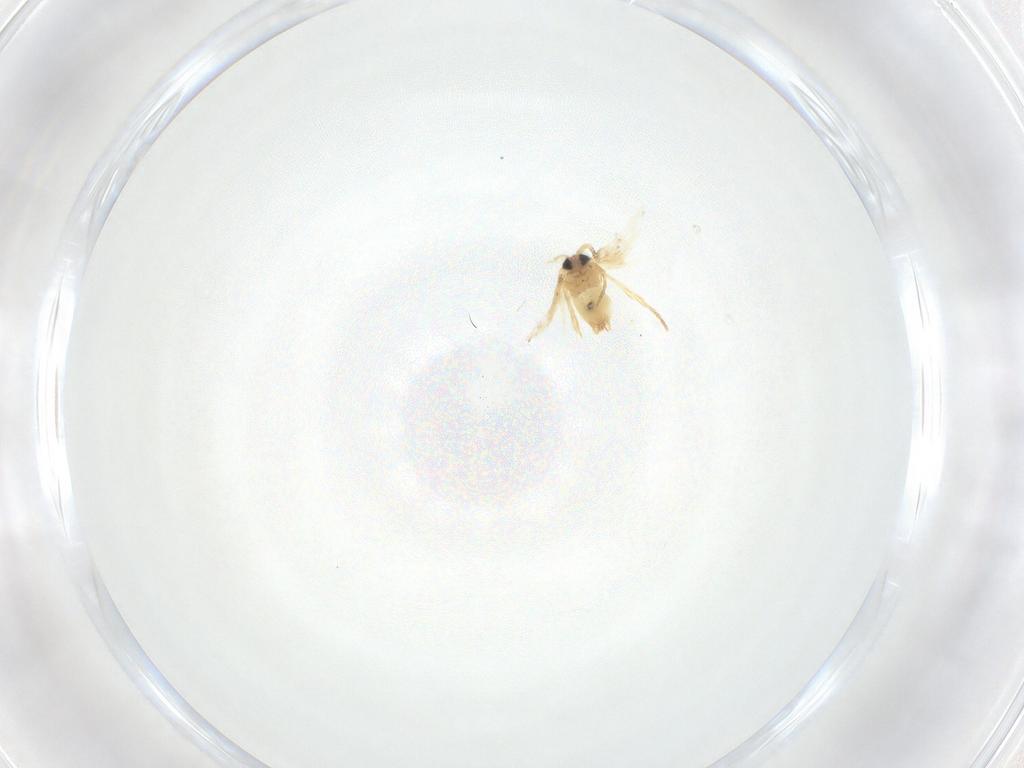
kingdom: Animalia
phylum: Arthropoda
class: Insecta
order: Lepidoptera
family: Crambidae
